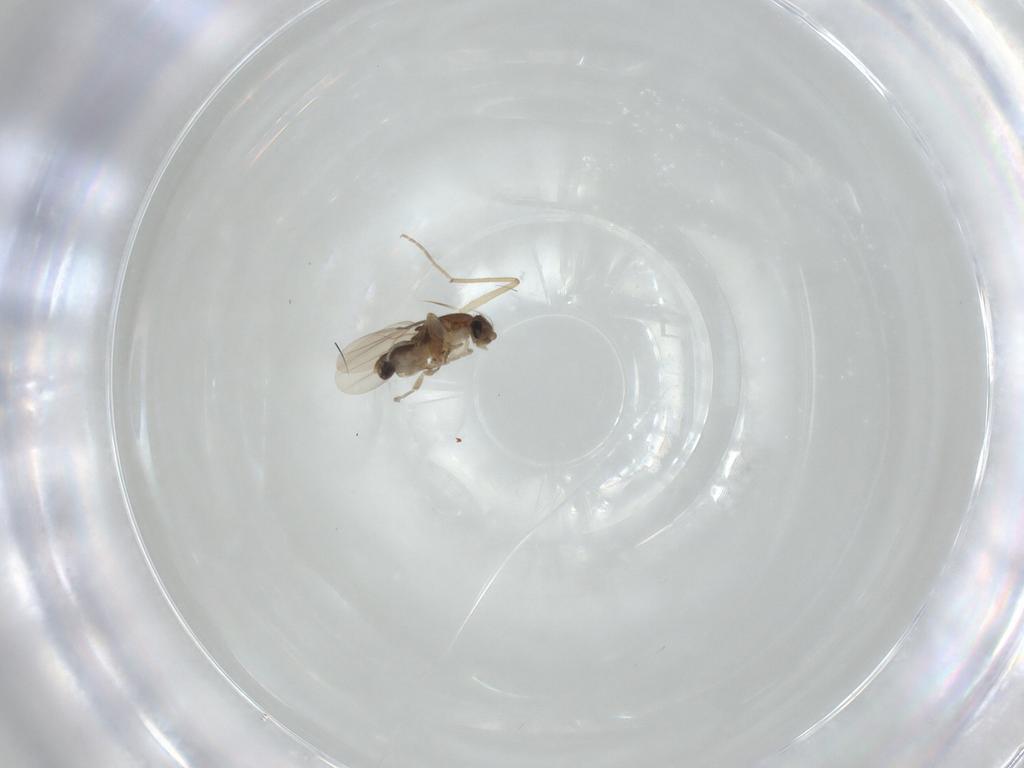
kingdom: Animalia
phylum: Arthropoda
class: Insecta
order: Diptera
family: Phoridae
